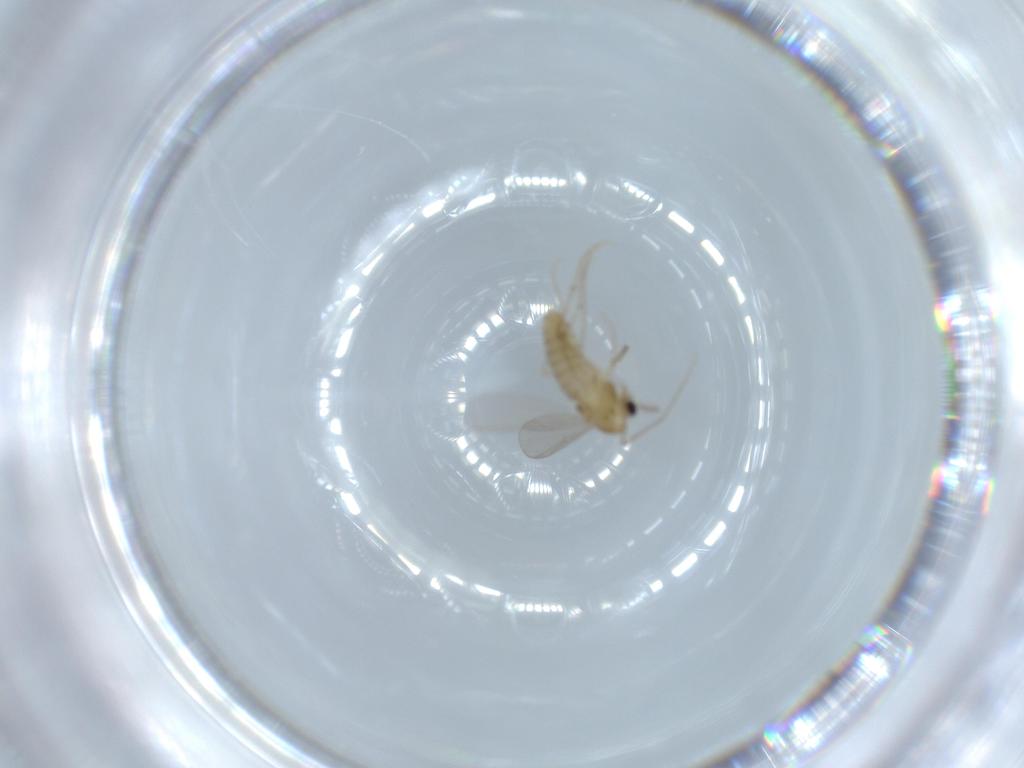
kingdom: Animalia
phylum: Arthropoda
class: Insecta
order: Diptera
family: Chironomidae
